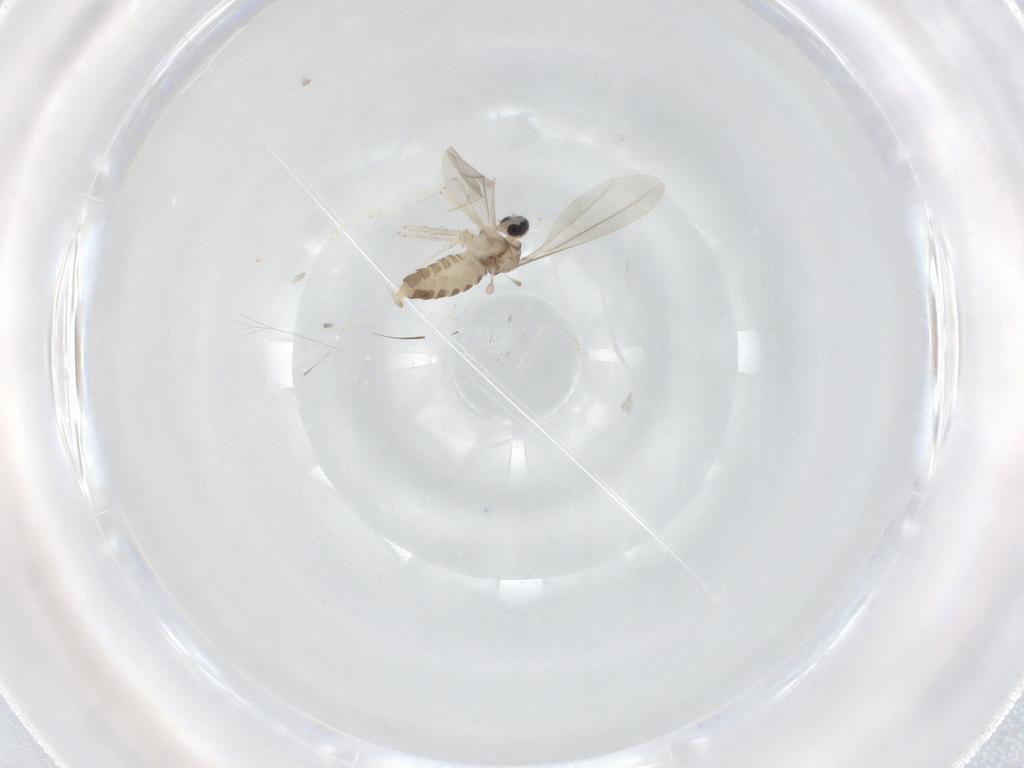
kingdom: Animalia
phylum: Arthropoda
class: Insecta
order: Diptera
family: Cecidomyiidae
